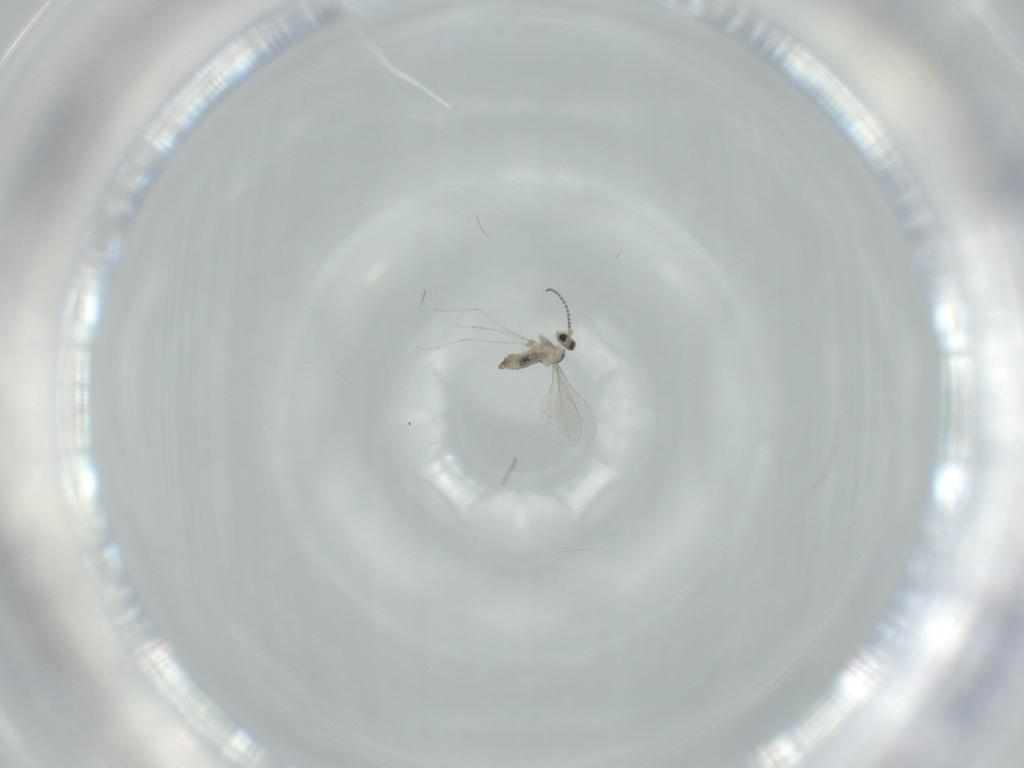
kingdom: Animalia
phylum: Arthropoda
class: Insecta
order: Diptera
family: Cecidomyiidae
